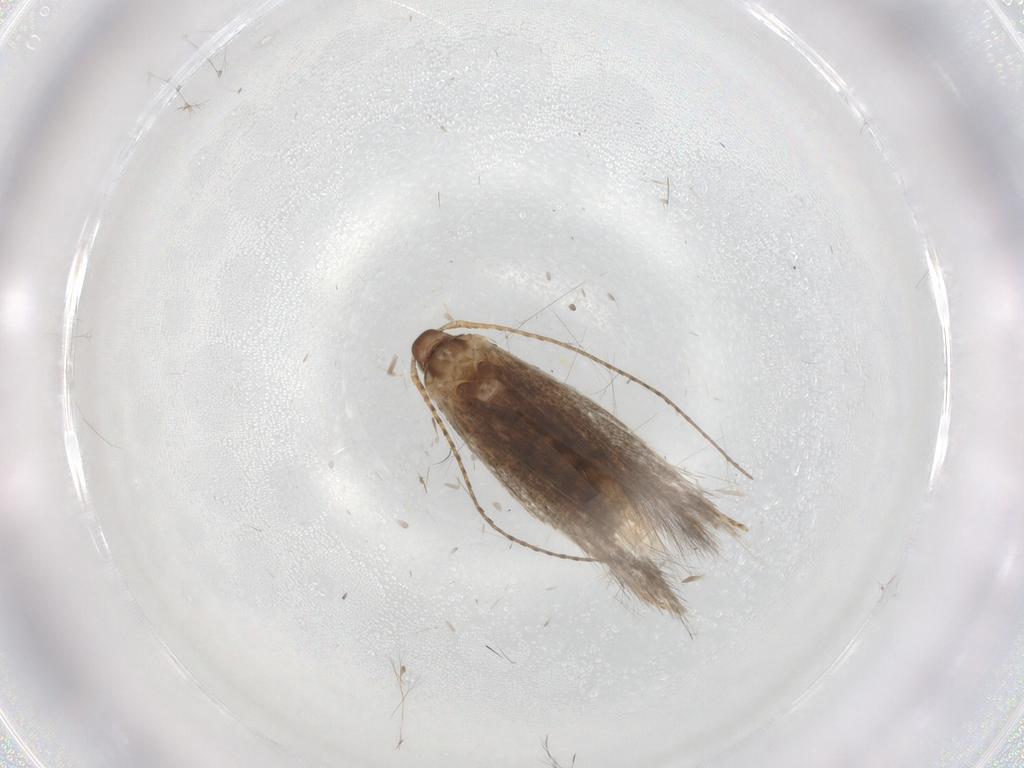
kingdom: Animalia
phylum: Arthropoda
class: Insecta
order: Lepidoptera
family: Coleophoridae
